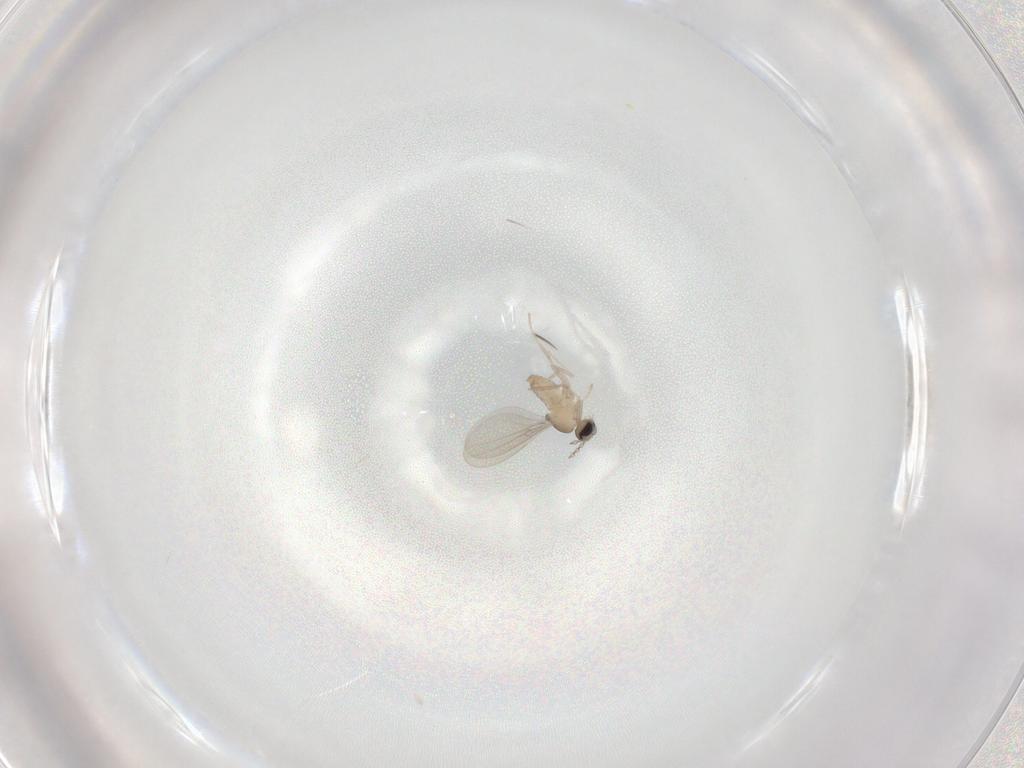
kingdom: Animalia
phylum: Arthropoda
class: Insecta
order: Diptera
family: Cecidomyiidae
